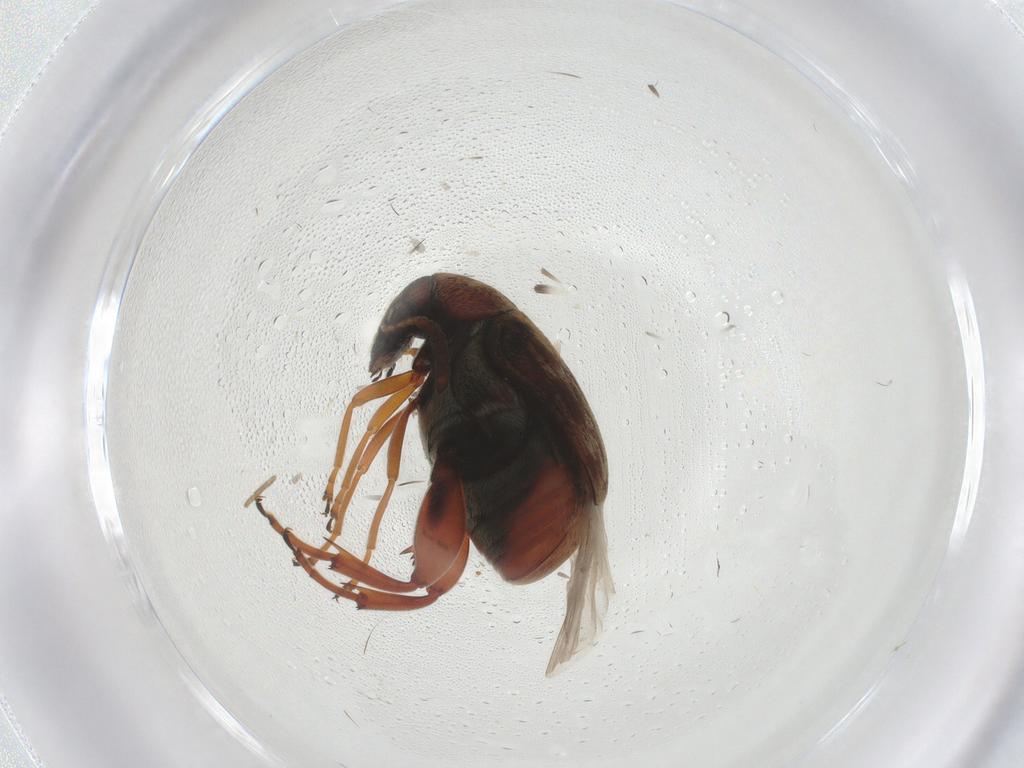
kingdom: Animalia
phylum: Arthropoda
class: Insecta
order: Coleoptera
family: Chrysomelidae
